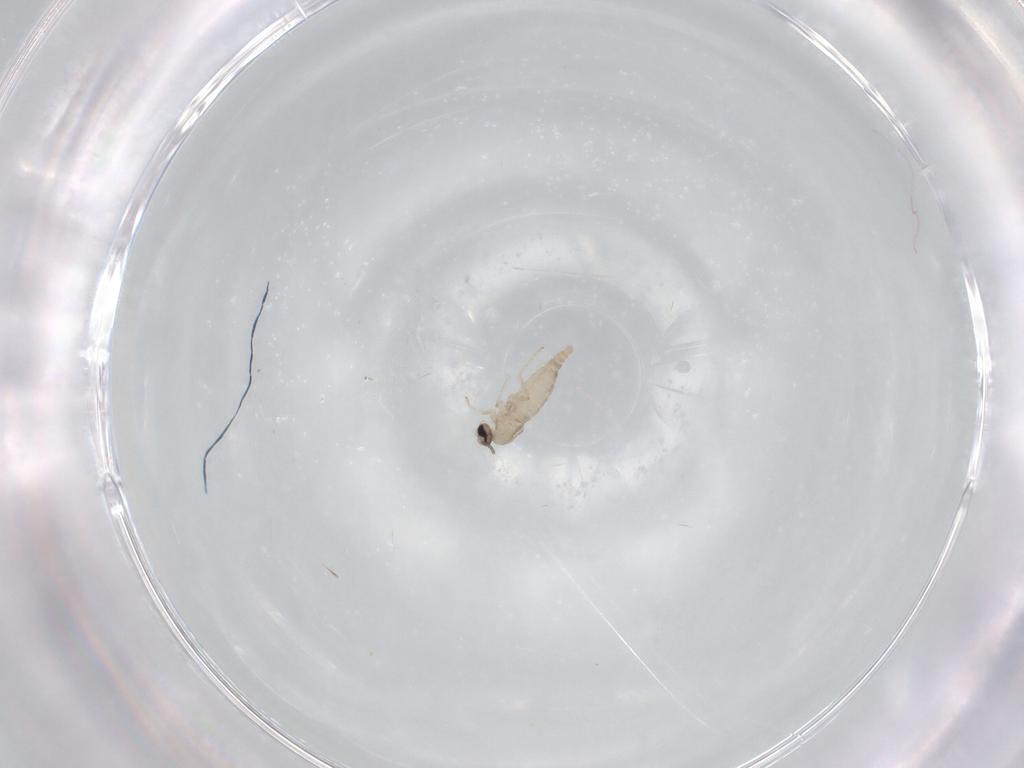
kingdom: Animalia
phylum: Arthropoda
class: Insecta
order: Diptera
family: Cecidomyiidae
